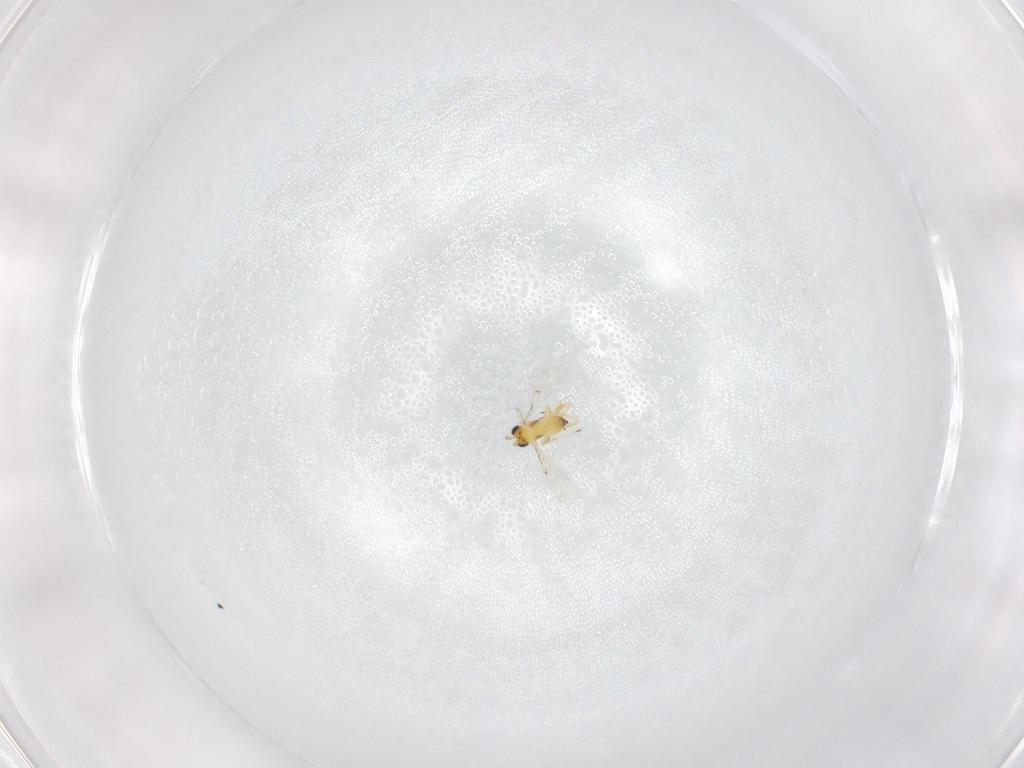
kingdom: Animalia
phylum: Arthropoda
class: Insecta
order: Hymenoptera
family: Trichogrammatidae
